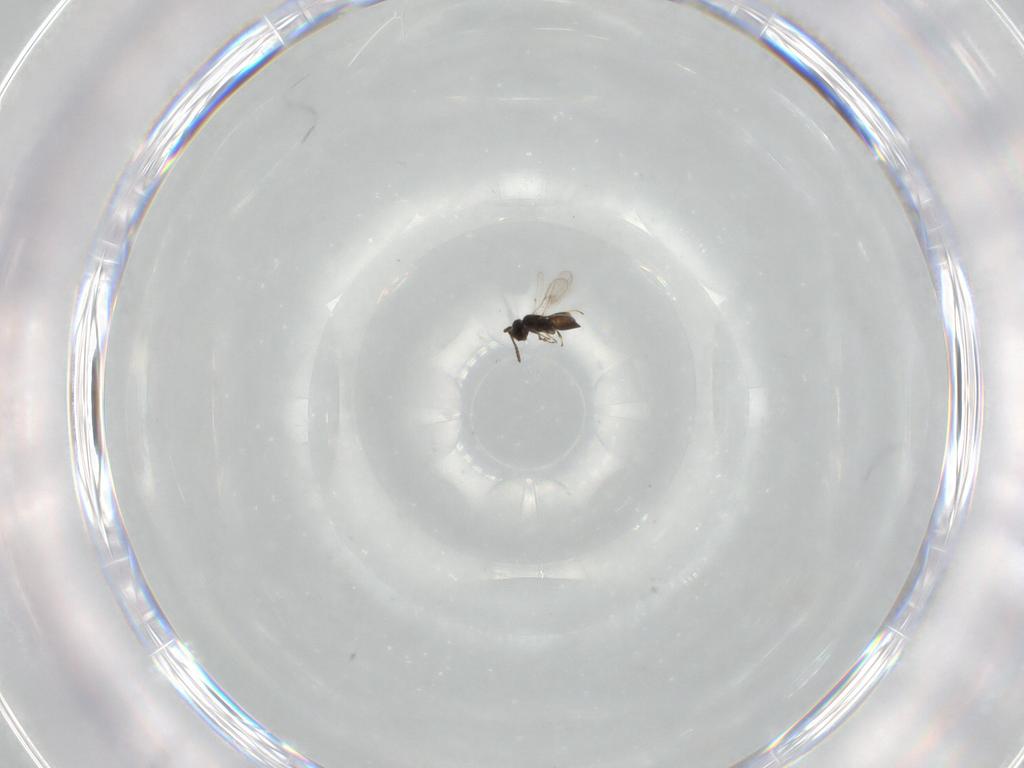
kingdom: Animalia
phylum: Arthropoda
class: Insecta
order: Hymenoptera
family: Scelionidae
